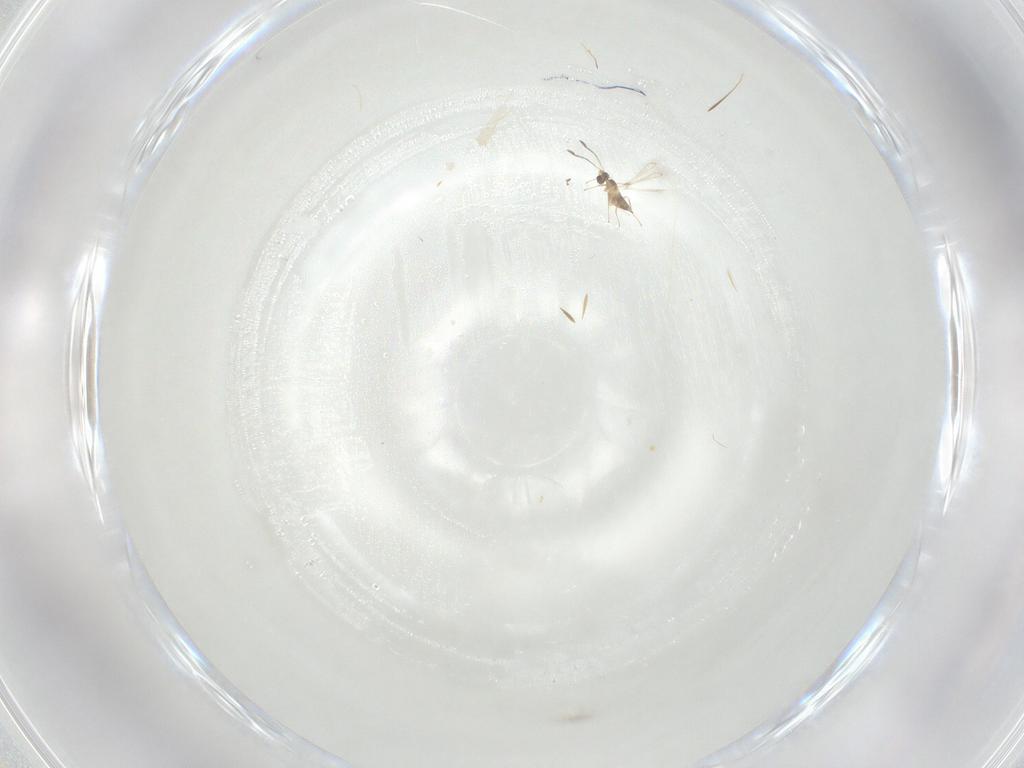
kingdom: Animalia
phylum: Arthropoda
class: Insecta
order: Hymenoptera
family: Mymaridae
